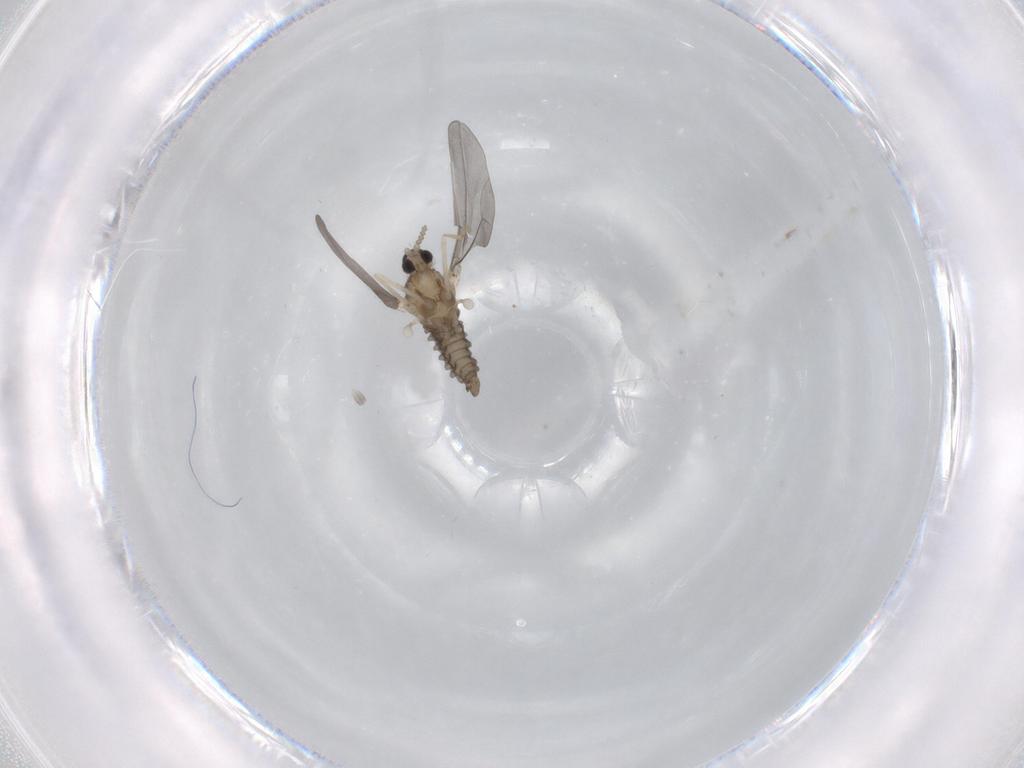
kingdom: Animalia
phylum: Arthropoda
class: Insecta
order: Diptera
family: Cecidomyiidae
